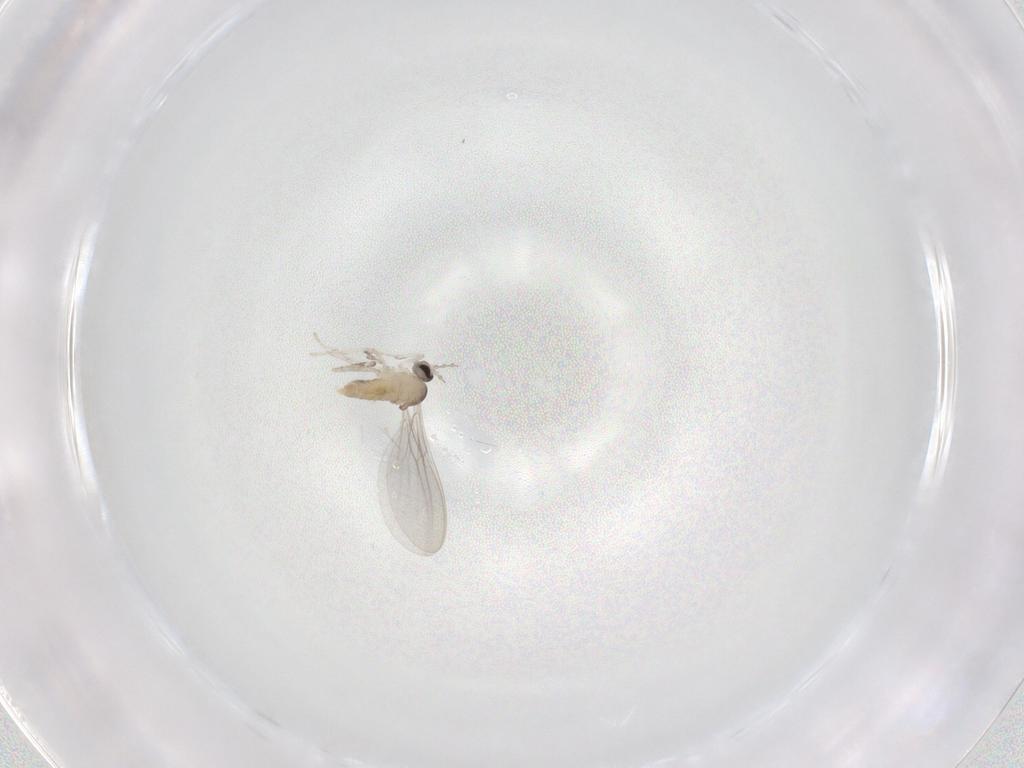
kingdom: Animalia
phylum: Arthropoda
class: Insecta
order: Diptera
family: Cecidomyiidae
